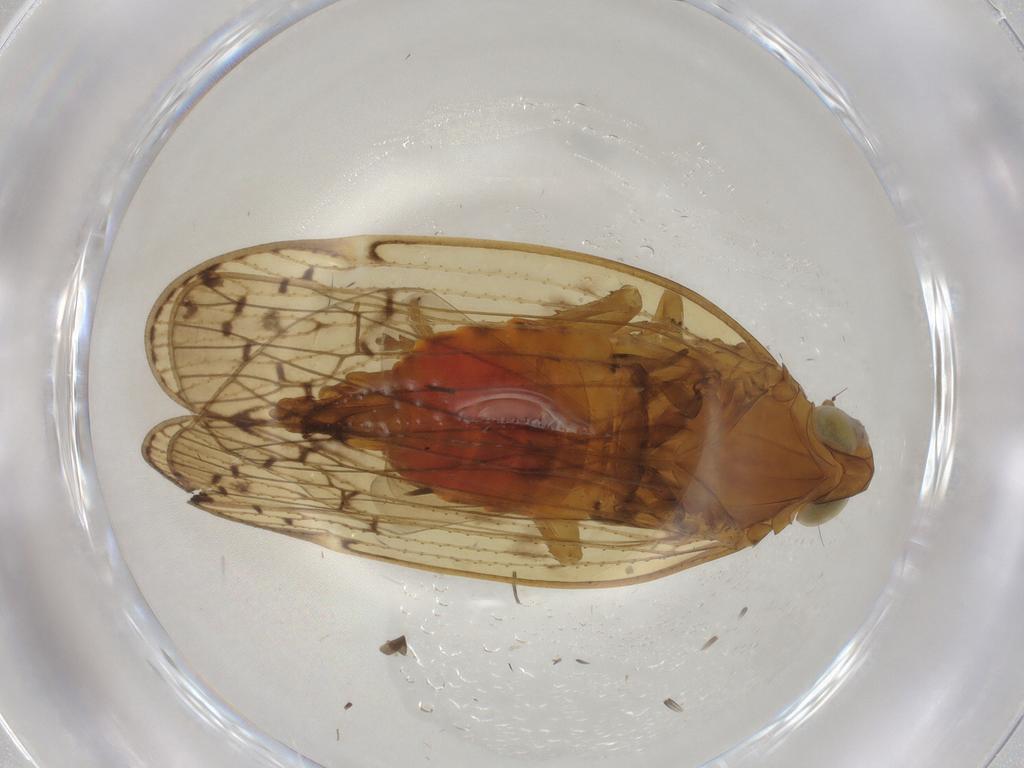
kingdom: Animalia
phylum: Arthropoda
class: Insecta
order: Hemiptera
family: Cixiidae
